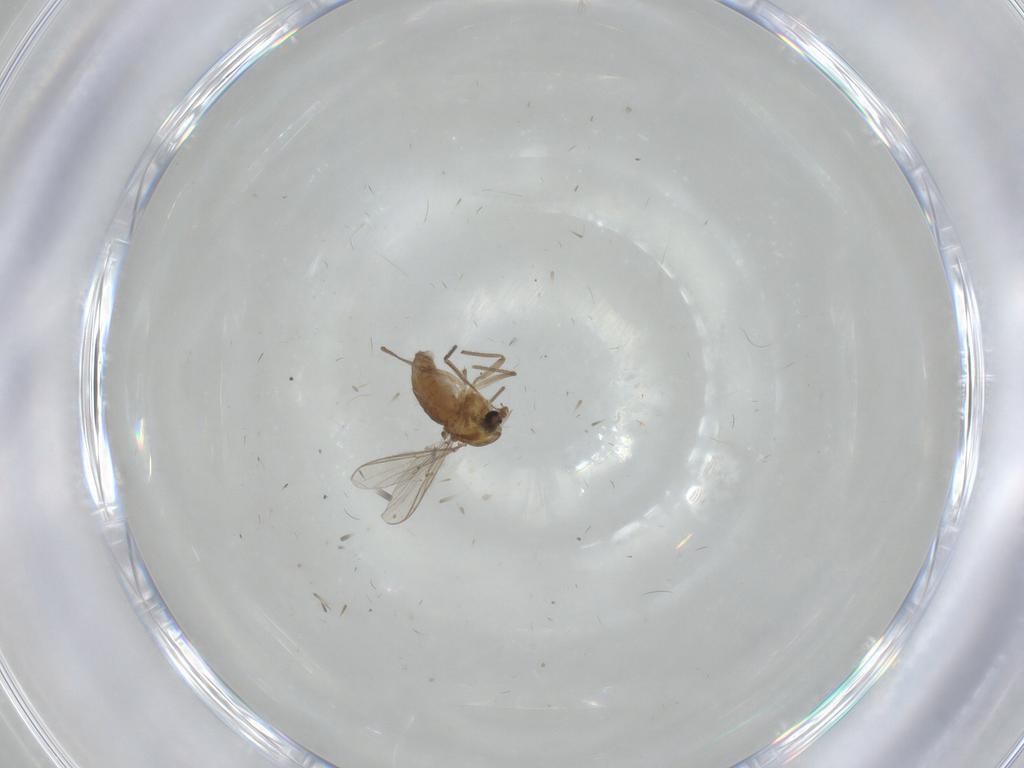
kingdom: Animalia
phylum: Arthropoda
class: Insecta
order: Diptera
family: Chironomidae
